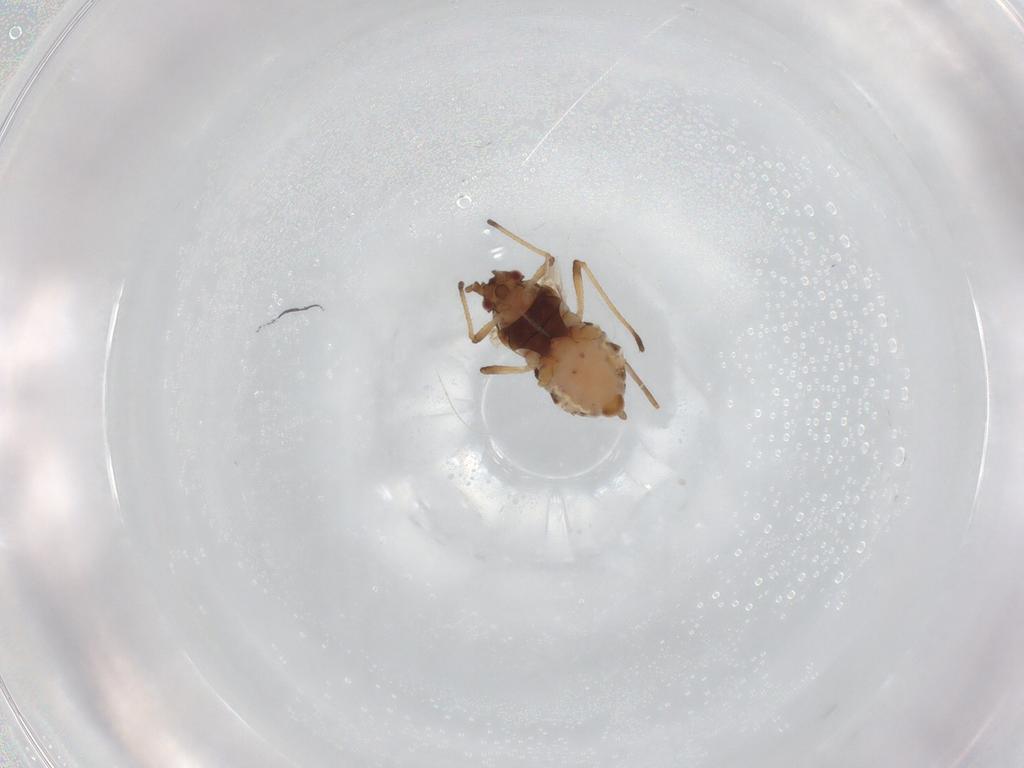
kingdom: Animalia
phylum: Arthropoda
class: Insecta
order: Hemiptera
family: Aphididae
